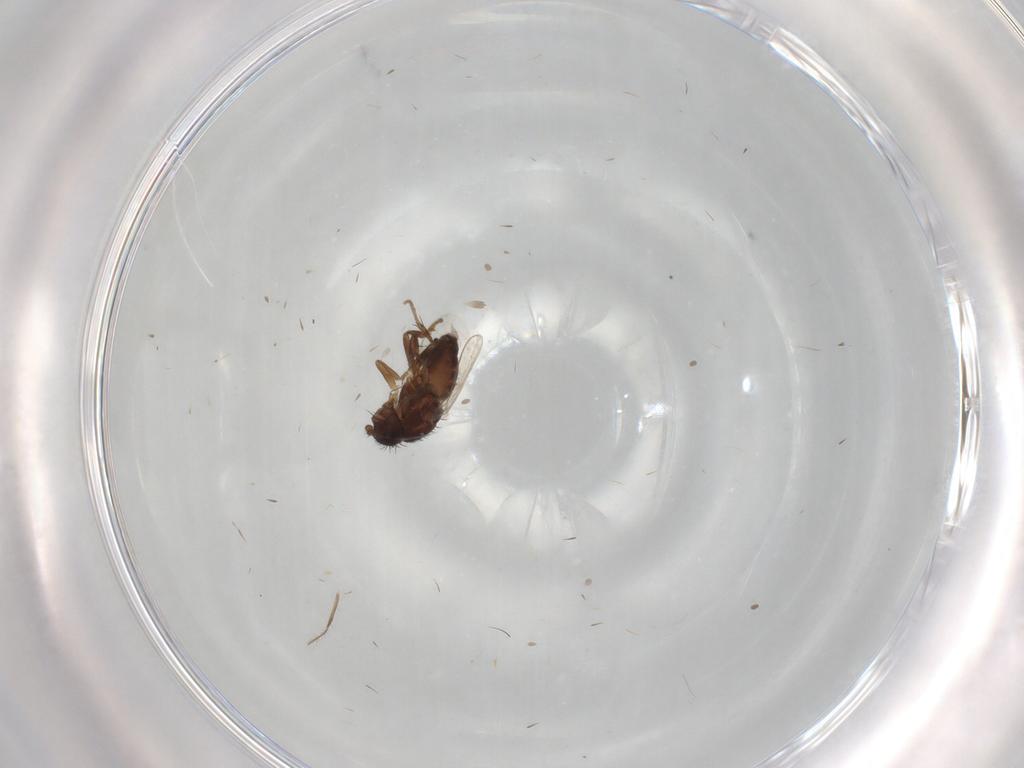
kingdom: Animalia
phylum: Arthropoda
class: Insecta
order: Diptera
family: Sphaeroceridae
